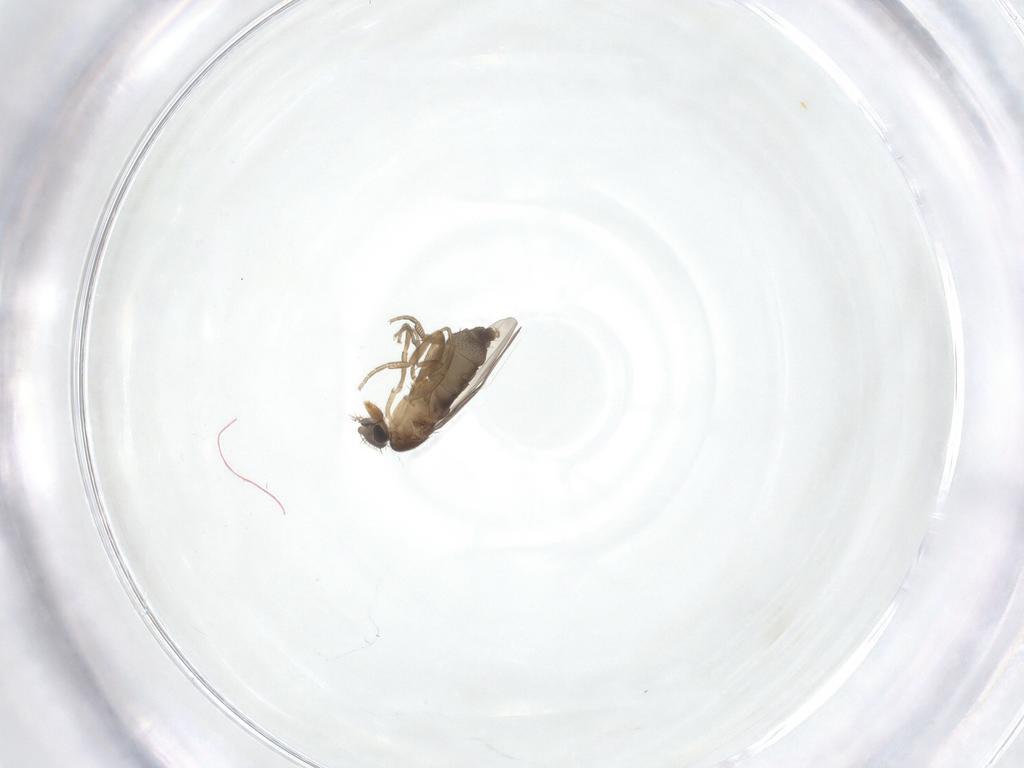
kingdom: Animalia
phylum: Arthropoda
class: Insecta
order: Diptera
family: Phoridae
